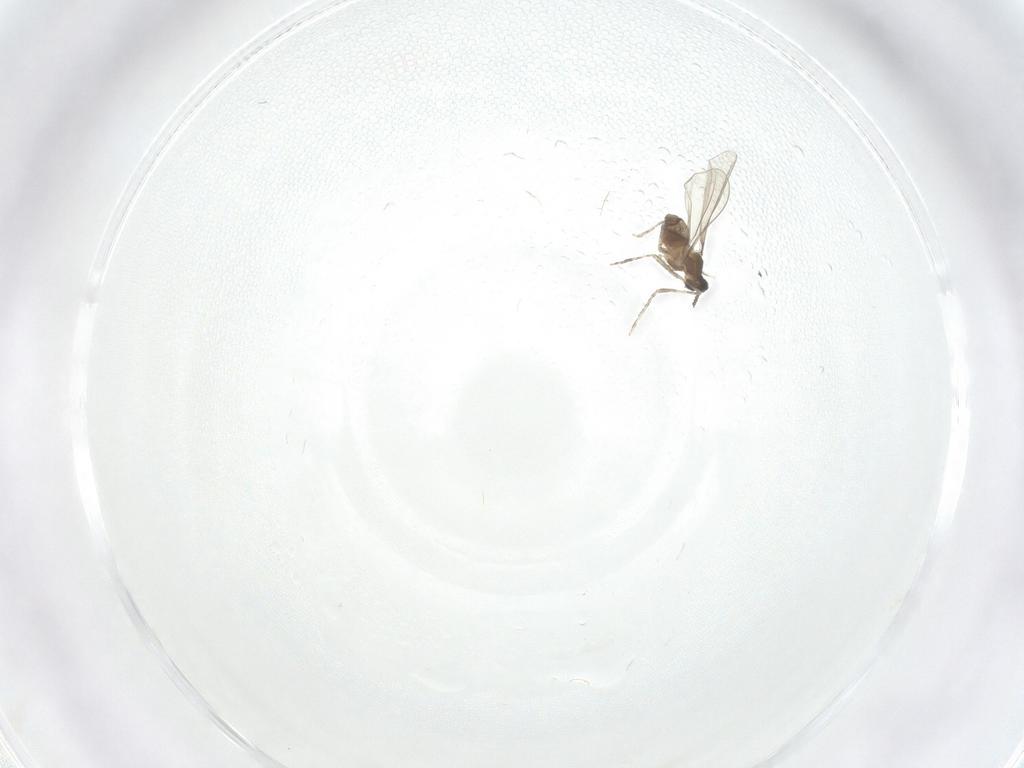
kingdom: Animalia
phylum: Arthropoda
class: Insecta
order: Diptera
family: Cecidomyiidae
